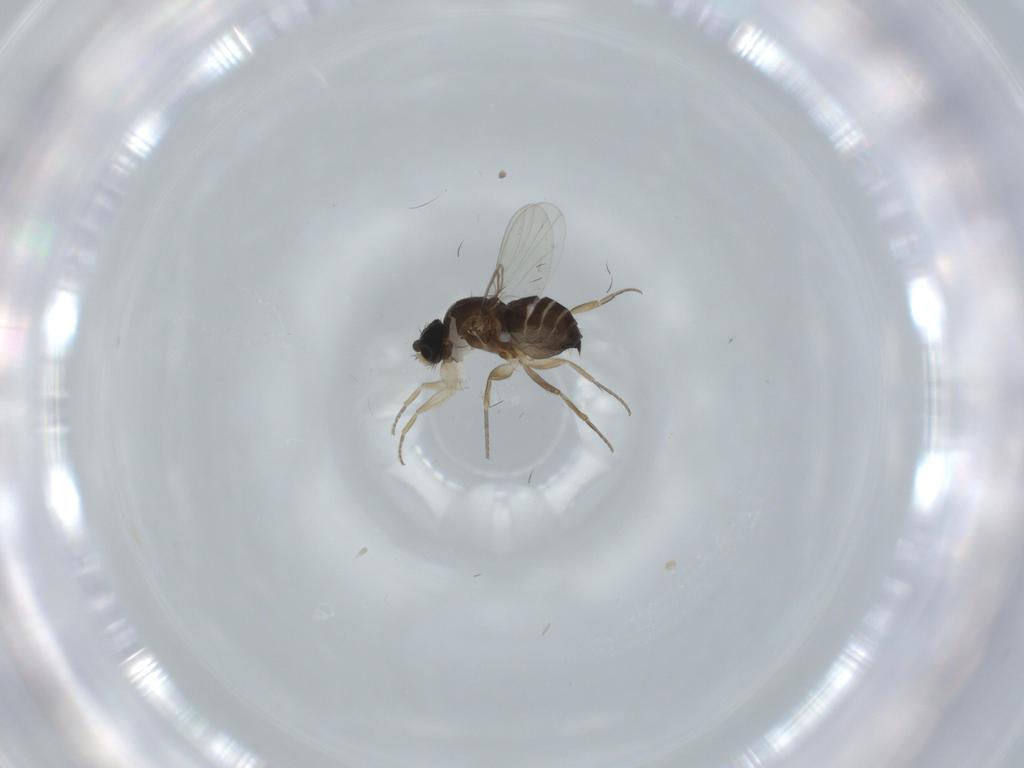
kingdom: Animalia
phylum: Arthropoda
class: Insecta
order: Diptera
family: Phoridae
